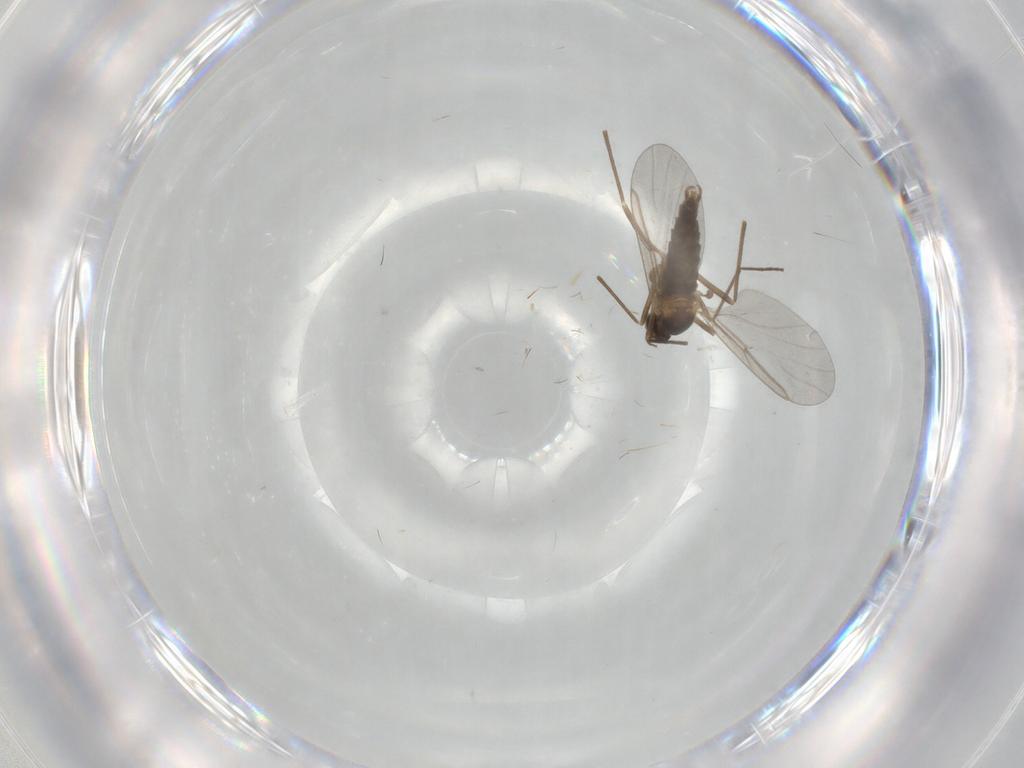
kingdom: Animalia
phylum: Arthropoda
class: Insecta
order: Diptera
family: Cecidomyiidae
